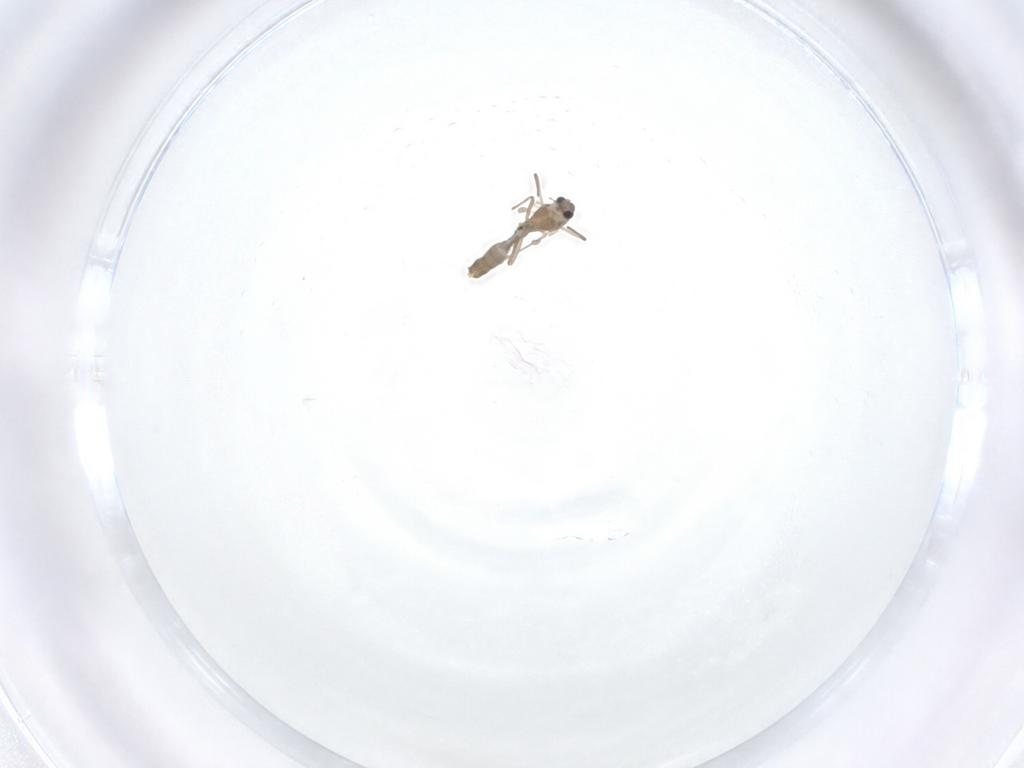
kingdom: Animalia
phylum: Arthropoda
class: Insecta
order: Diptera
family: Chironomidae
